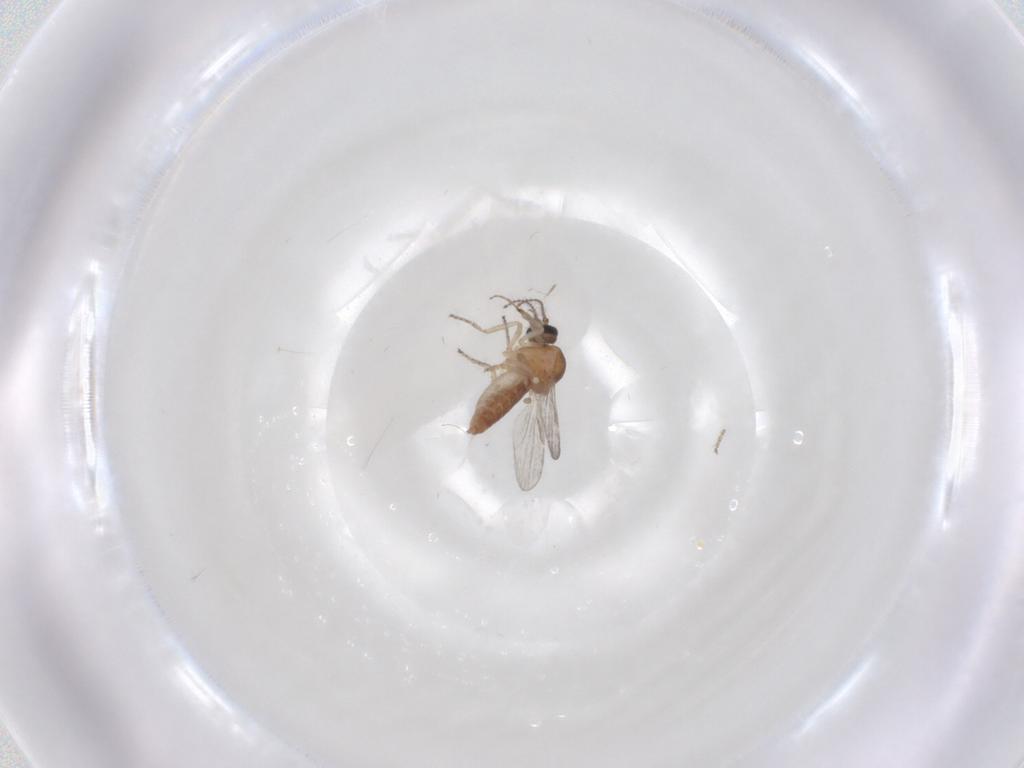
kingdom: Animalia
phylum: Arthropoda
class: Insecta
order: Diptera
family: Ceratopogonidae
